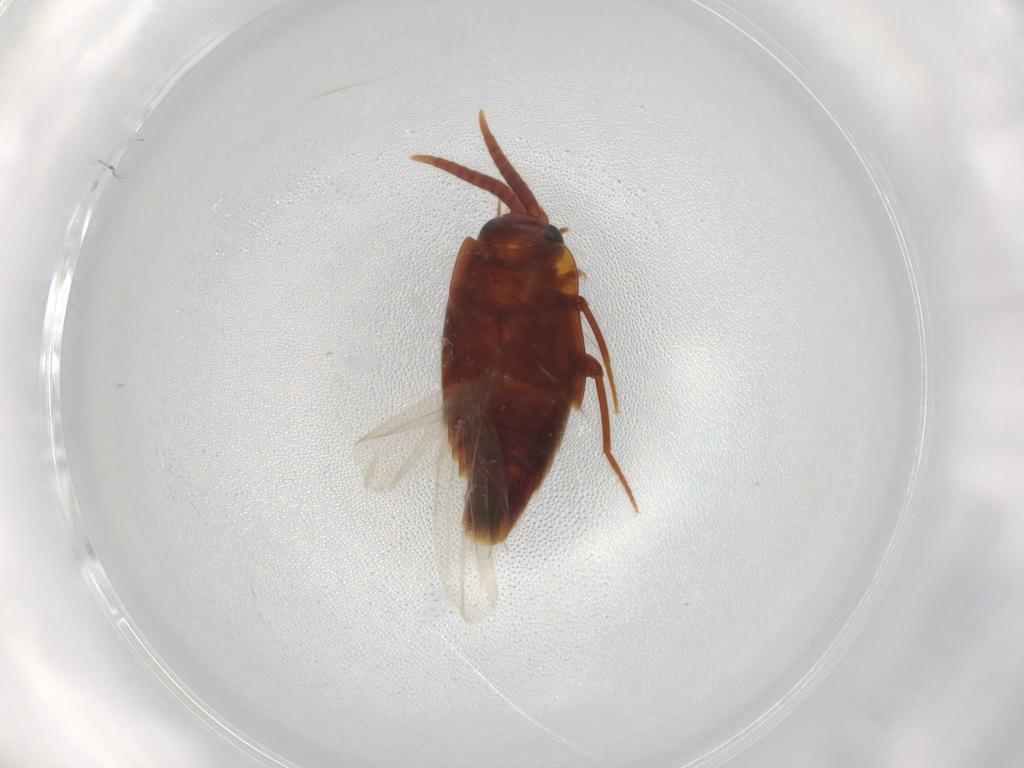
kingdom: Animalia
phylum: Arthropoda
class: Insecta
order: Coleoptera
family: Staphylinidae
